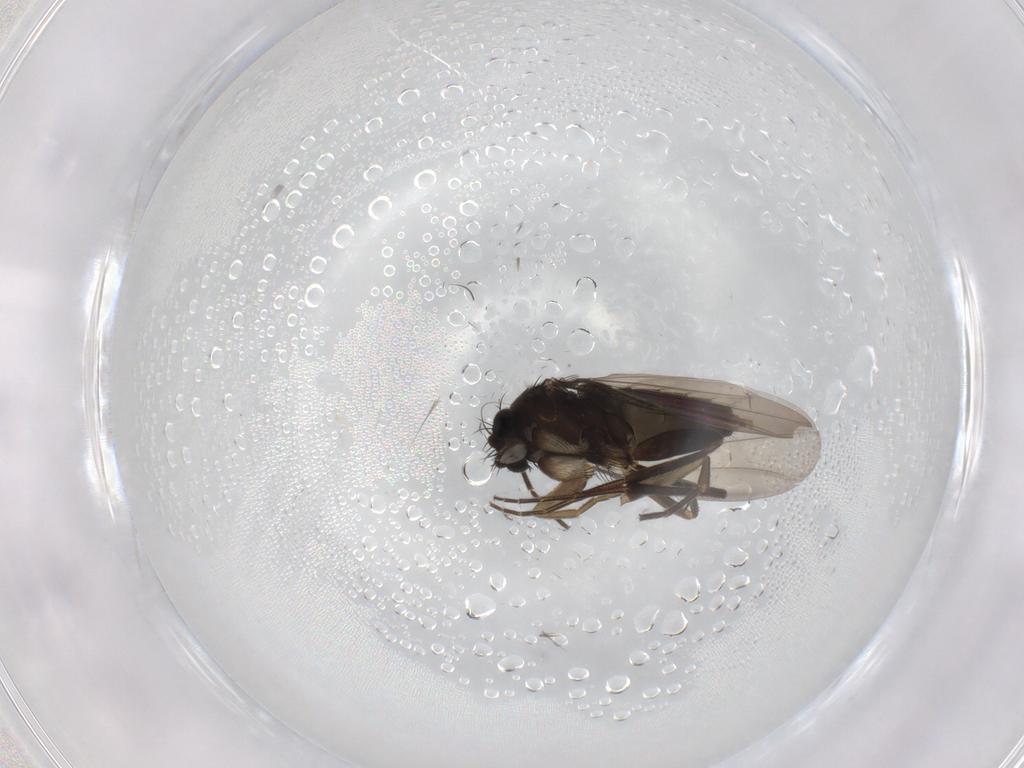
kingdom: Animalia
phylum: Arthropoda
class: Insecta
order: Diptera
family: Phoridae
